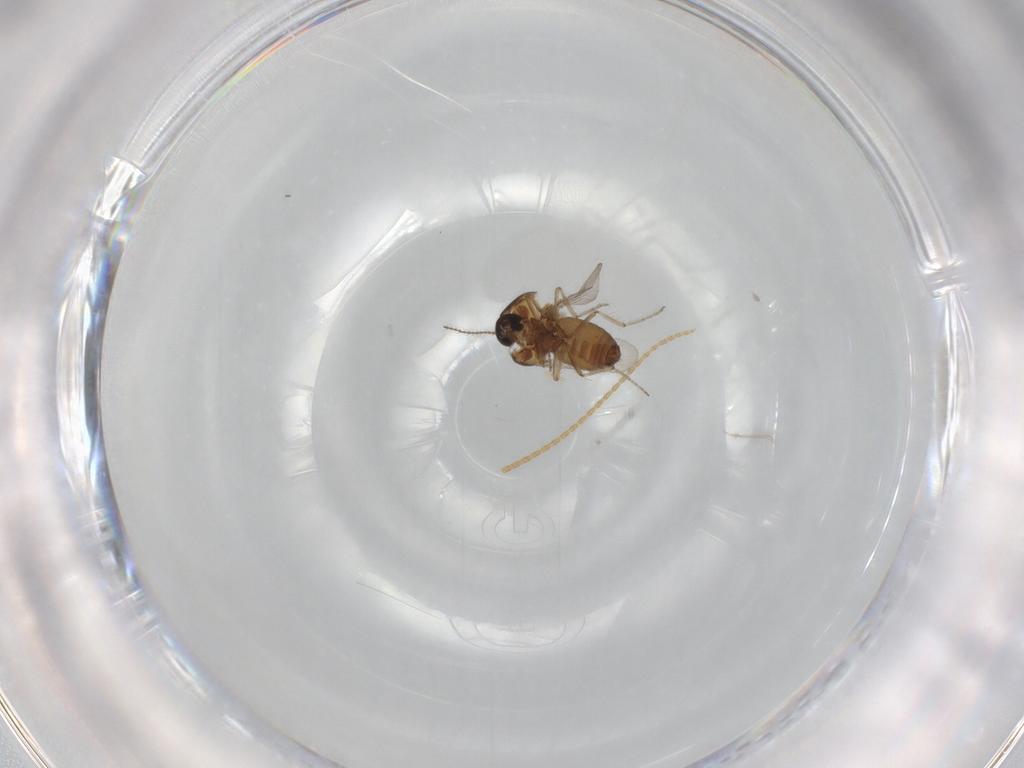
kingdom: Animalia
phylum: Arthropoda
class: Insecta
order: Diptera
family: Ceratopogonidae
